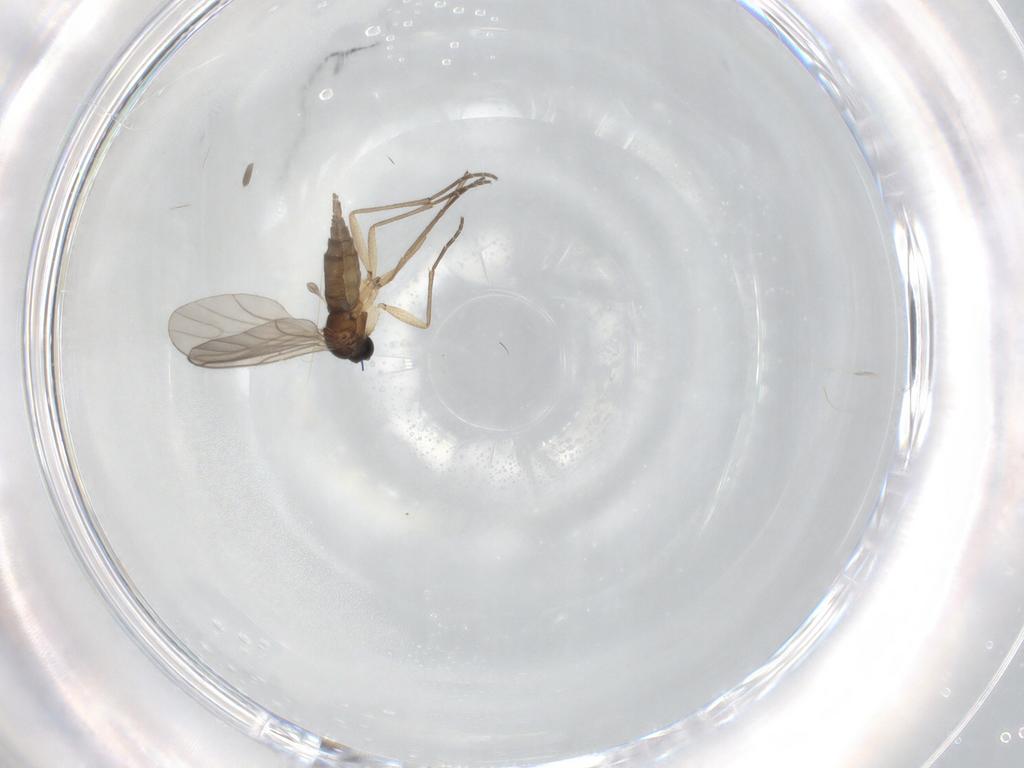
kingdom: Animalia
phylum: Arthropoda
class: Insecta
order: Diptera
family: Sciaridae
